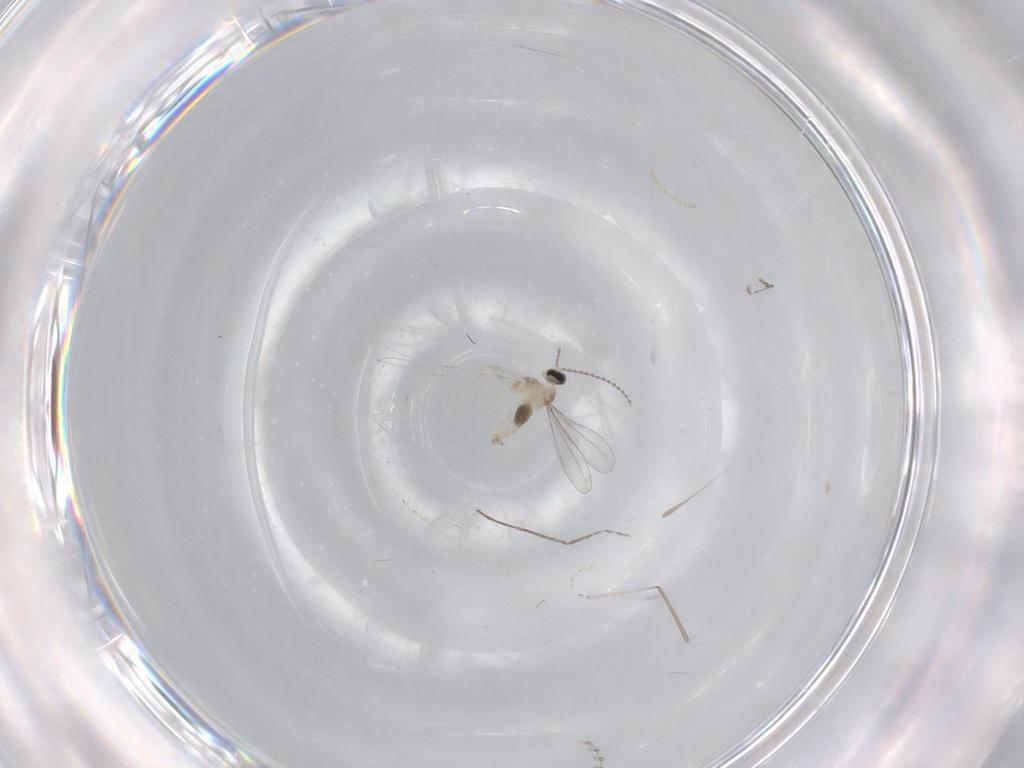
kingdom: Animalia
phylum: Arthropoda
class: Insecta
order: Diptera
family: Cecidomyiidae
